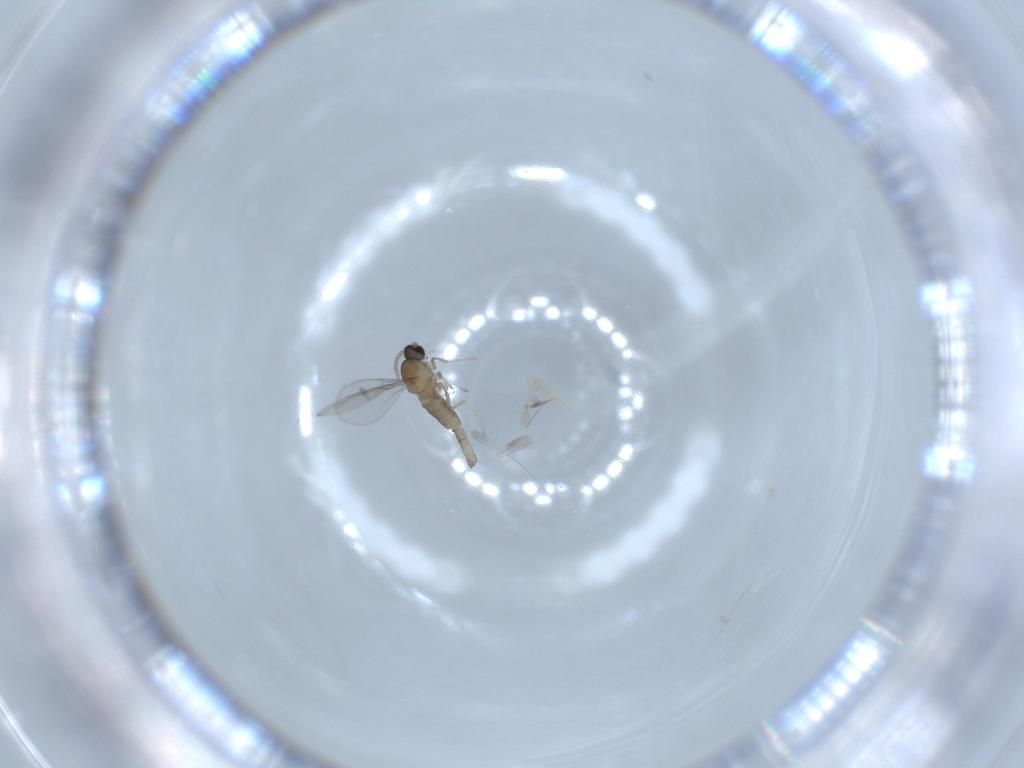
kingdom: Animalia
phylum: Arthropoda
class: Insecta
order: Diptera
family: Cecidomyiidae
